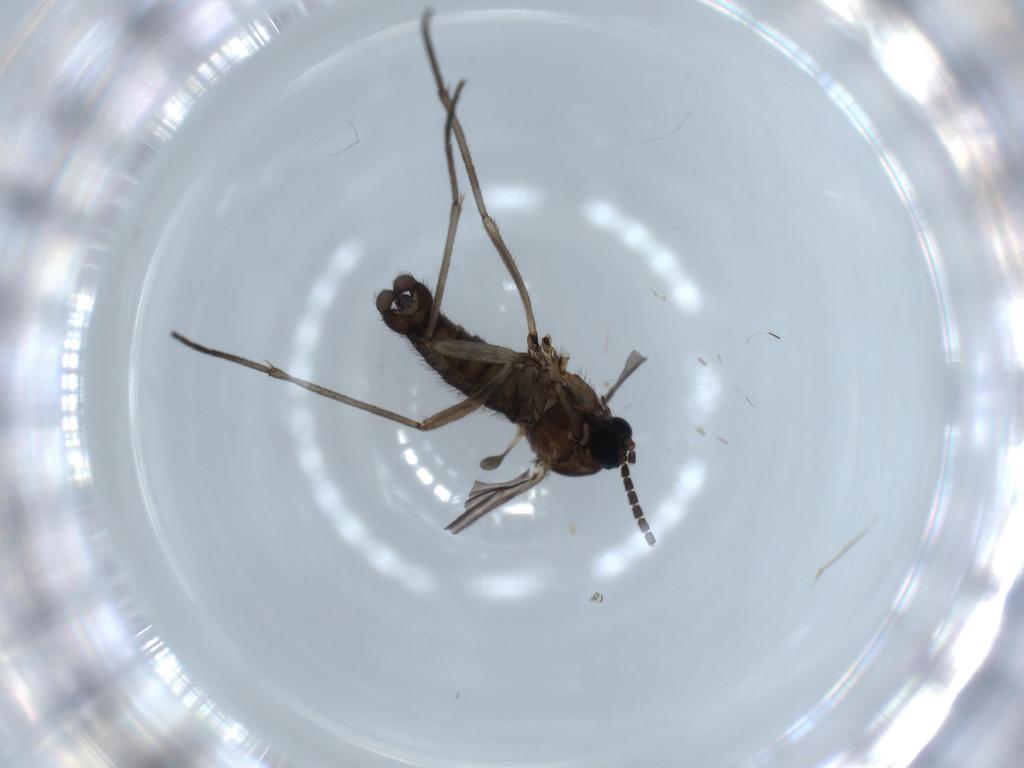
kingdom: Animalia
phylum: Arthropoda
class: Insecta
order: Diptera
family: Sciaridae
